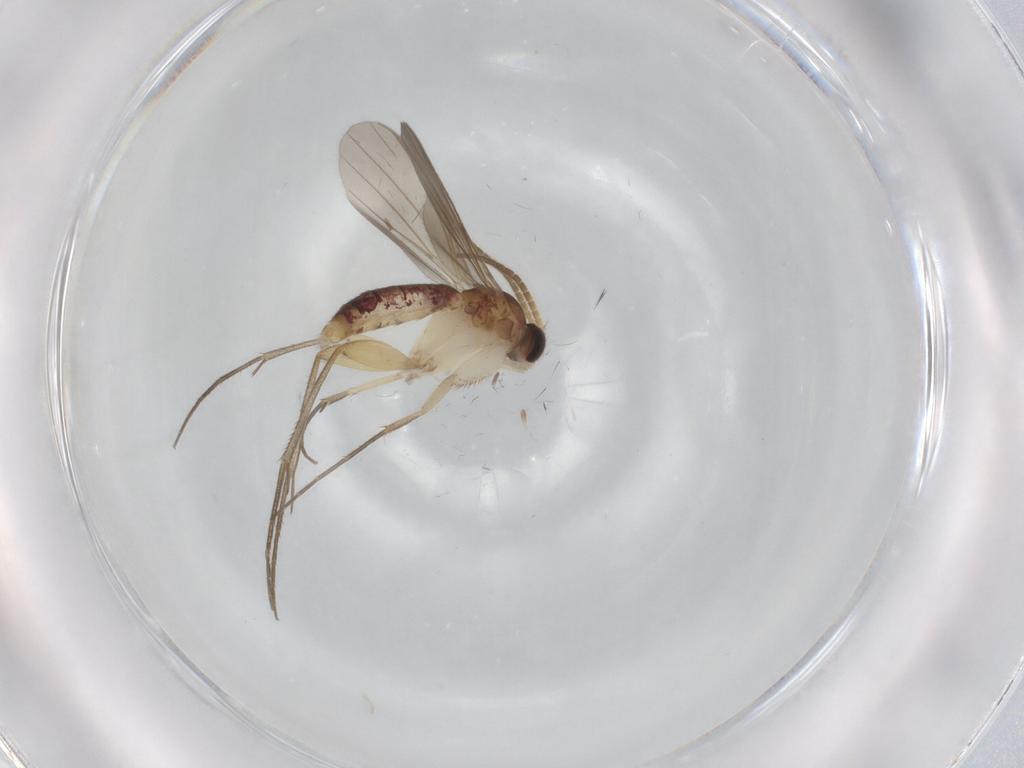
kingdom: Animalia
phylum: Arthropoda
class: Insecta
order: Diptera
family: Mycetophilidae
